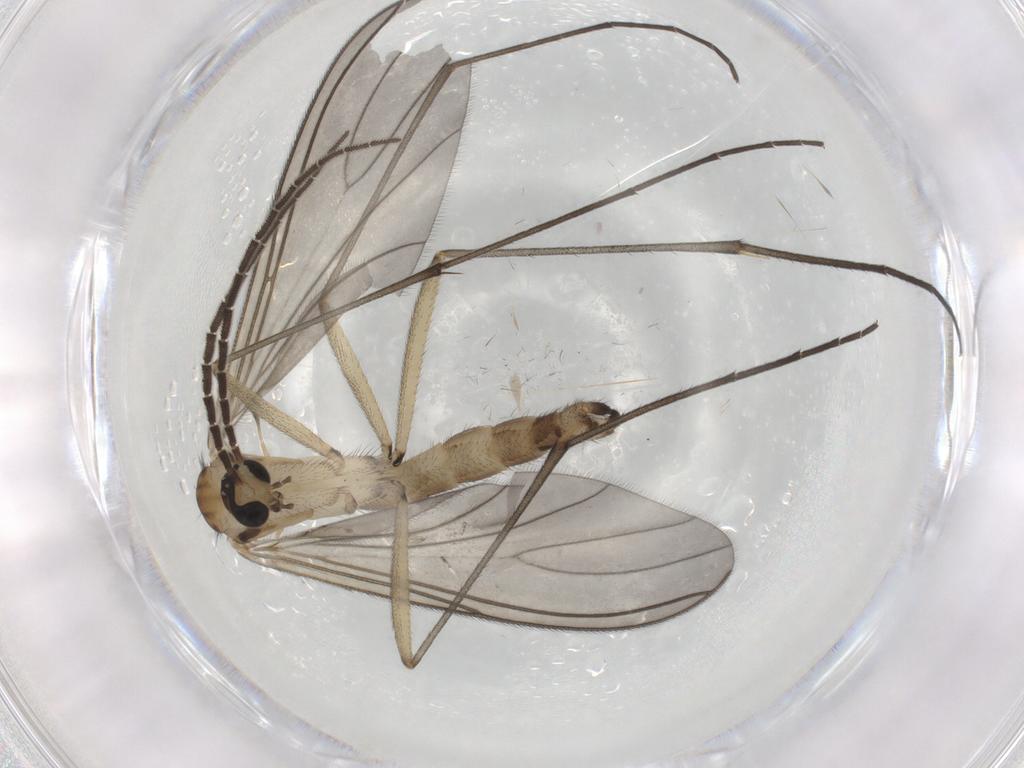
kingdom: Animalia
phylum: Arthropoda
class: Insecta
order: Diptera
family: Sciaridae
